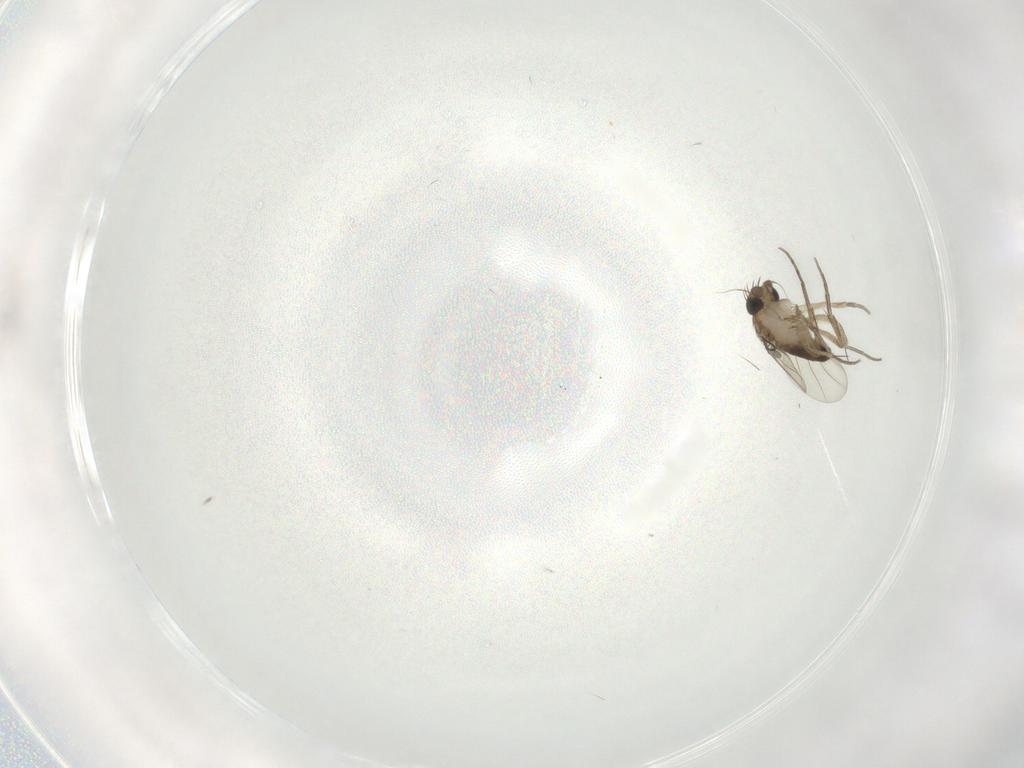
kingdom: Animalia
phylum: Arthropoda
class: Insecta
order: Diptera
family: Phoridae
